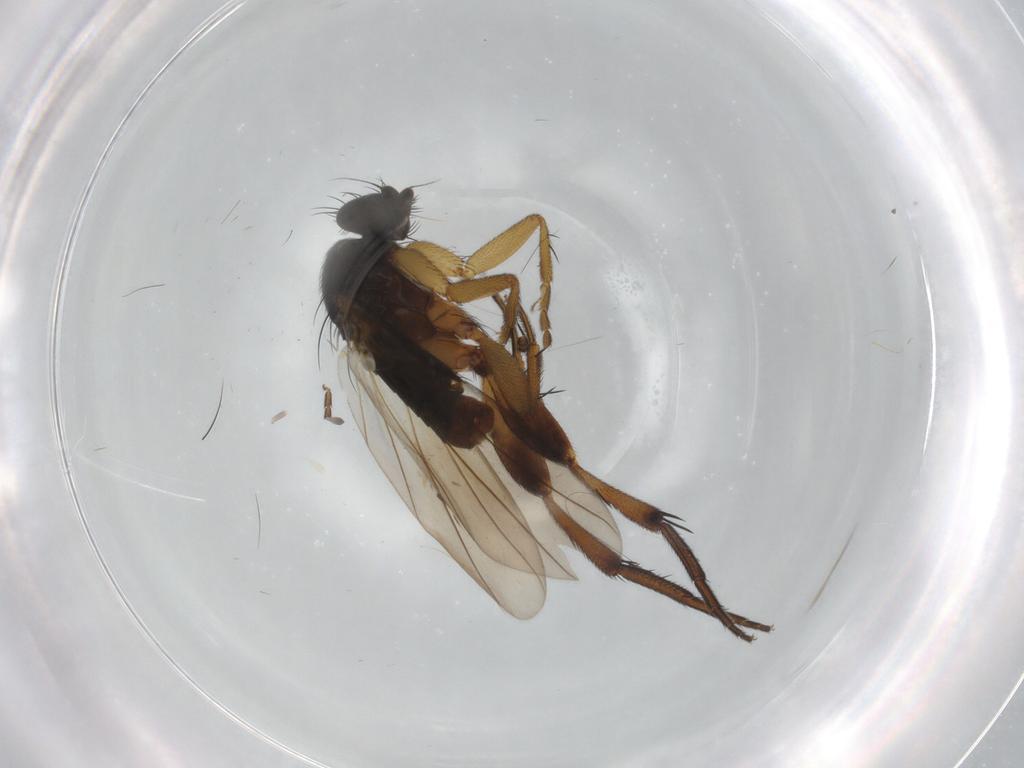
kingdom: Animalia
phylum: Arthropoda
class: Insecta
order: Diptera
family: Phoridae
